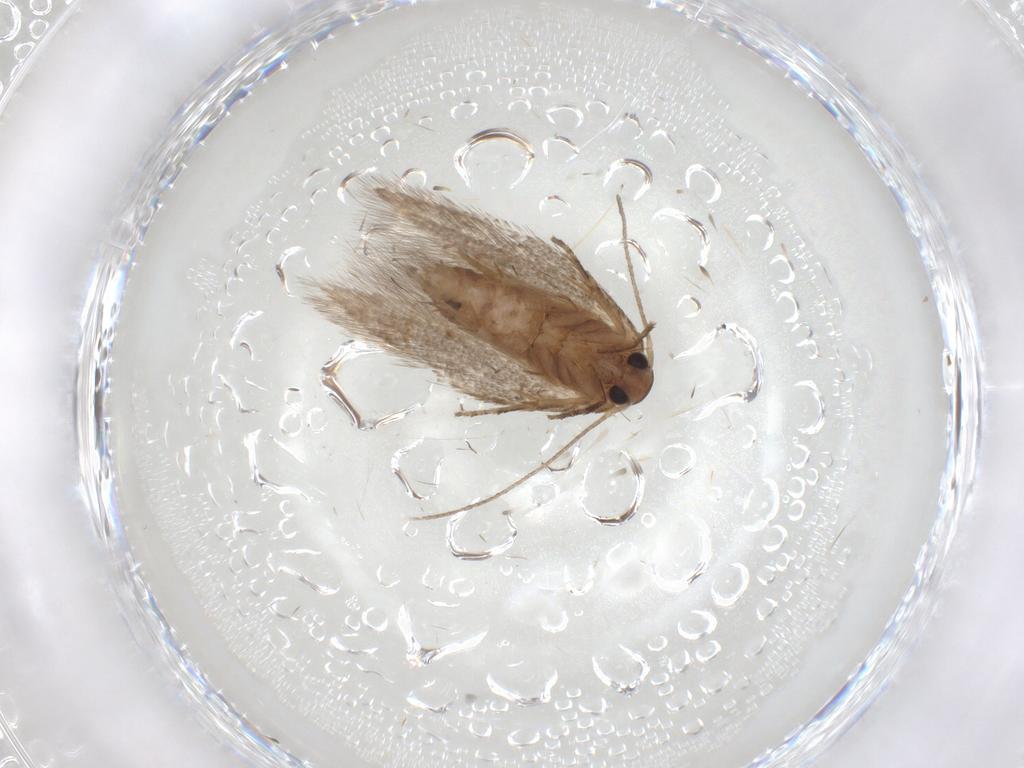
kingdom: Animalia
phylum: Arthropoda
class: Insecta
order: Lepidoptera
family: Elachistidae
